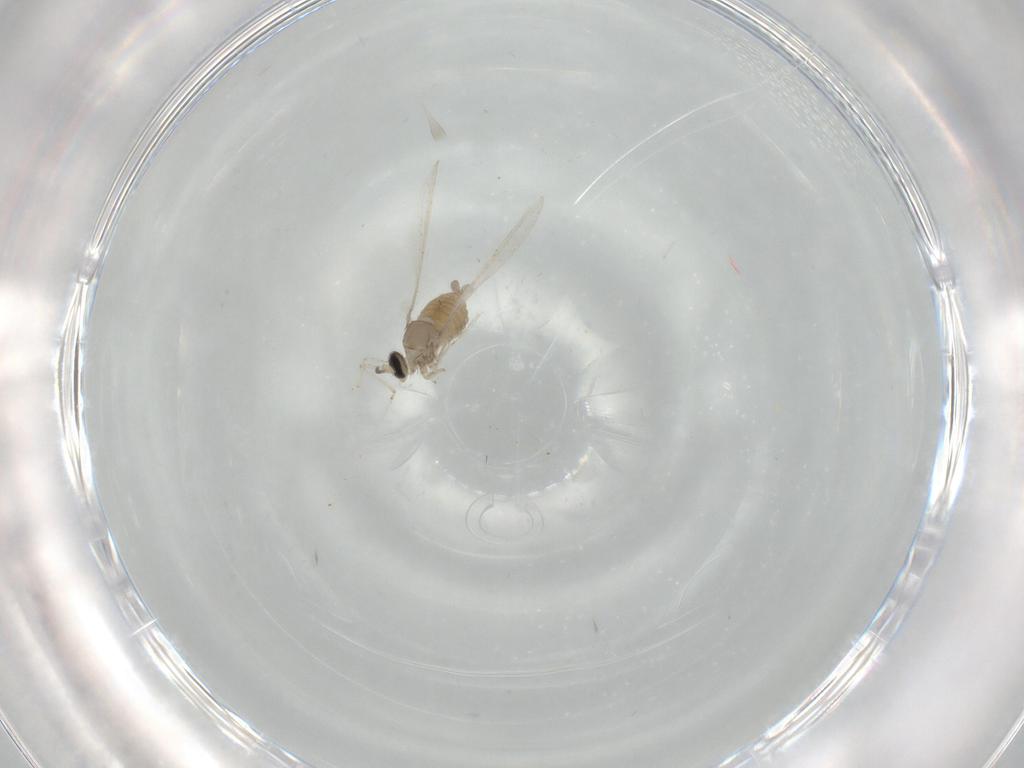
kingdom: Animalia
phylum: Arthropoda
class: Insecta
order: Diptera
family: Cecidomyiidae
